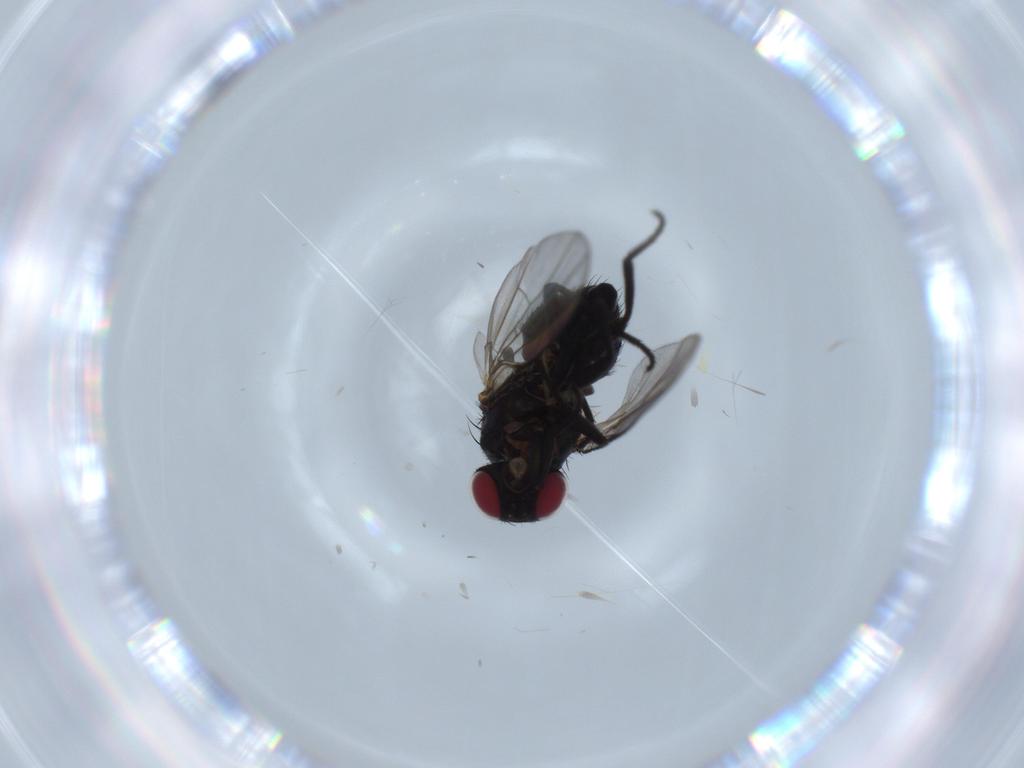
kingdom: Animalia
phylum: Arthropoda
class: Insecta
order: Diptera
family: Agromyzidae
